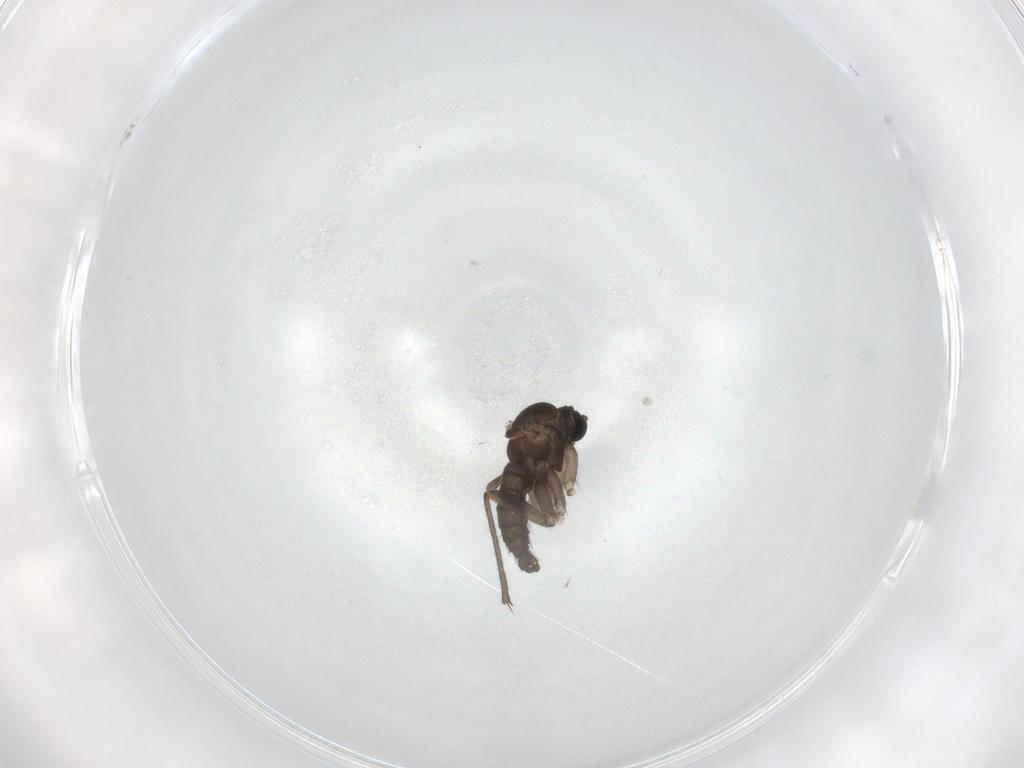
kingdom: Animalia
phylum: Arthropoda
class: Insecta
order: Diptera
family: Sciaridae
